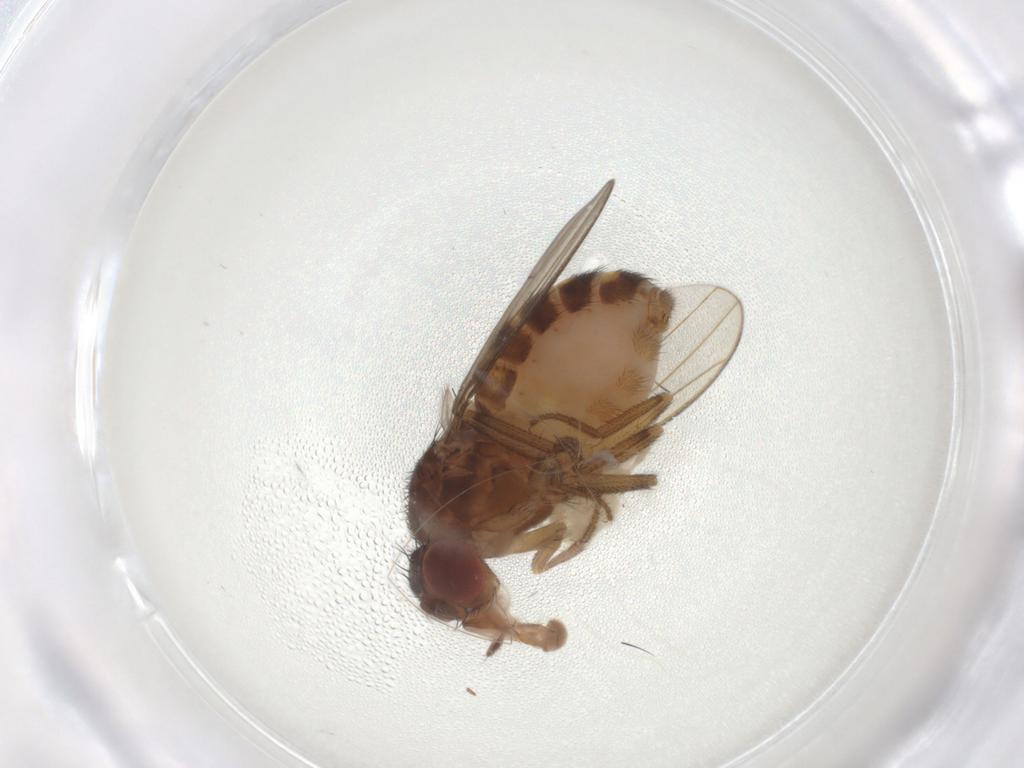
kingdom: Animalia
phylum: Arthropoda
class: Insecta
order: Diptera
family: Drosophilidae
